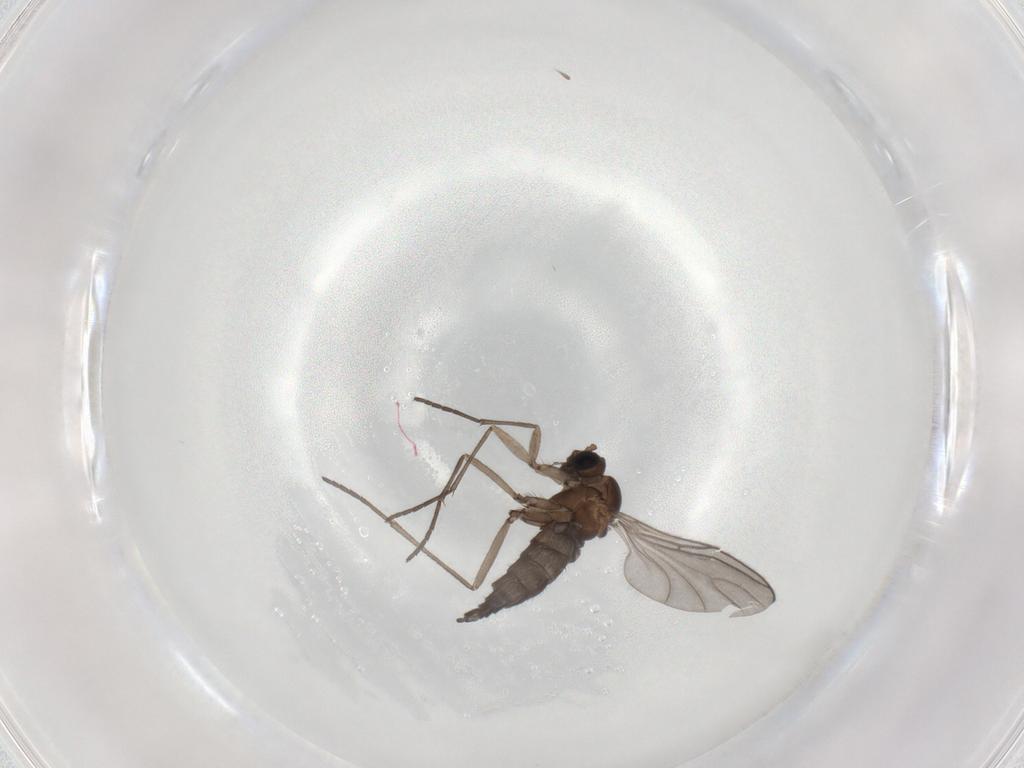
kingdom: Animalia
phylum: Arthropoda
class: Insecta
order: Diptera
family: Sciaridae
